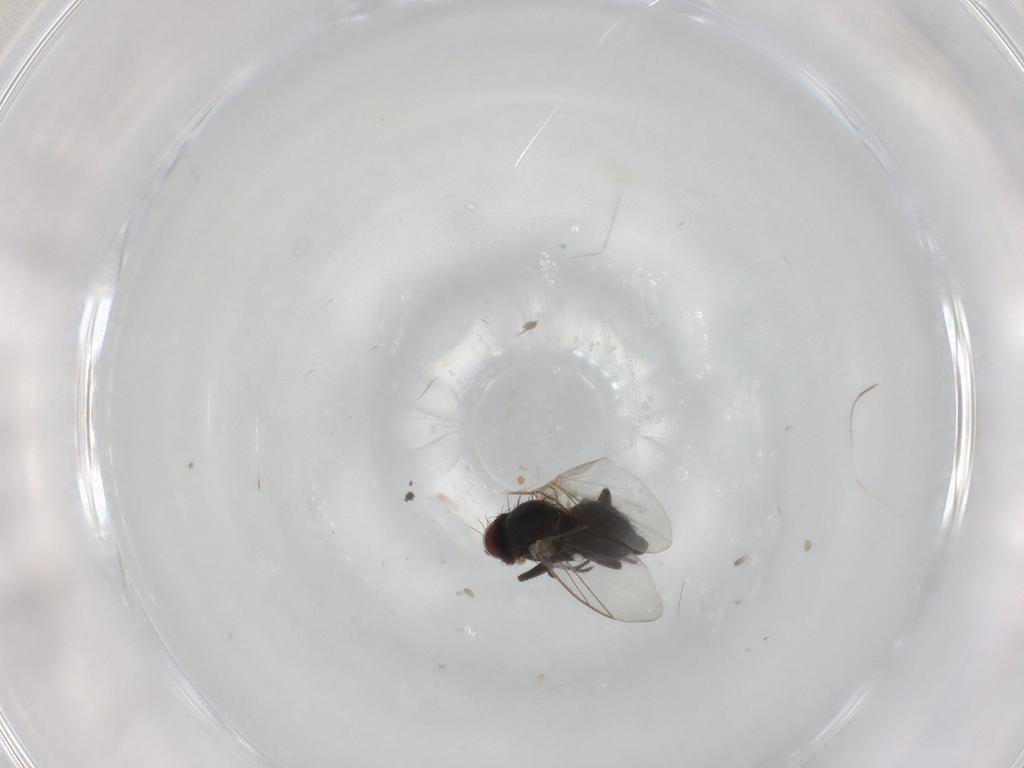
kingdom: Animalia
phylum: Arthropoda
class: Insecta
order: Diptera
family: Agromyzidae
